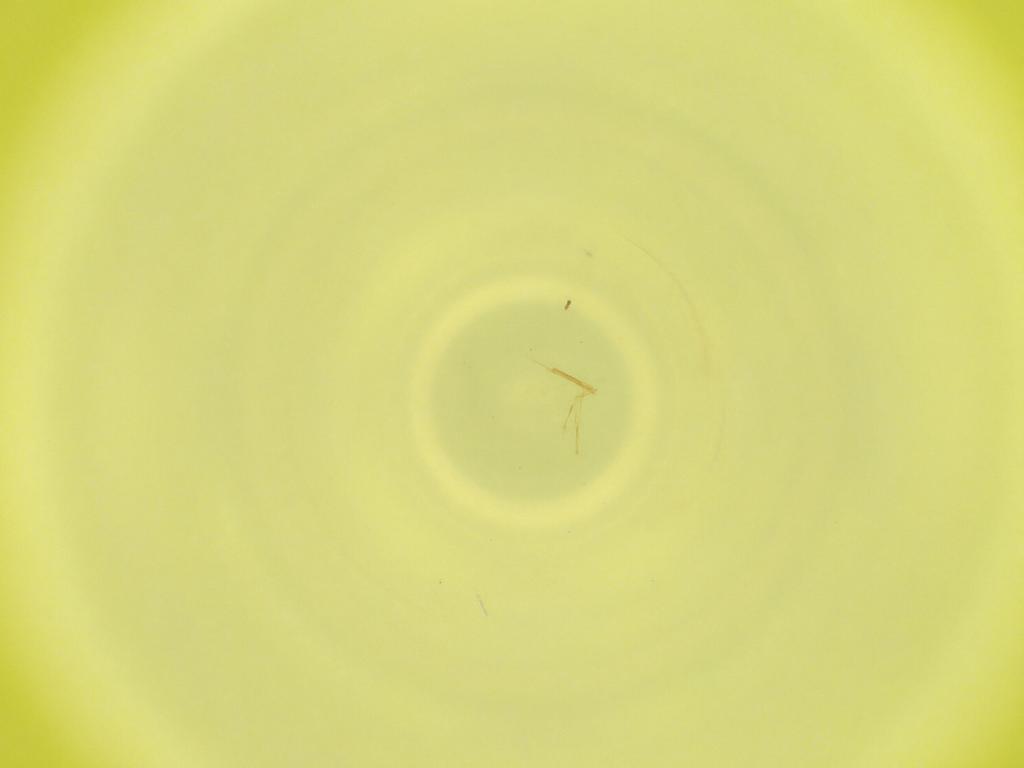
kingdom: Animalia
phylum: Arthropoda
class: Insecta
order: Diptera
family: Cecidomyiidae
